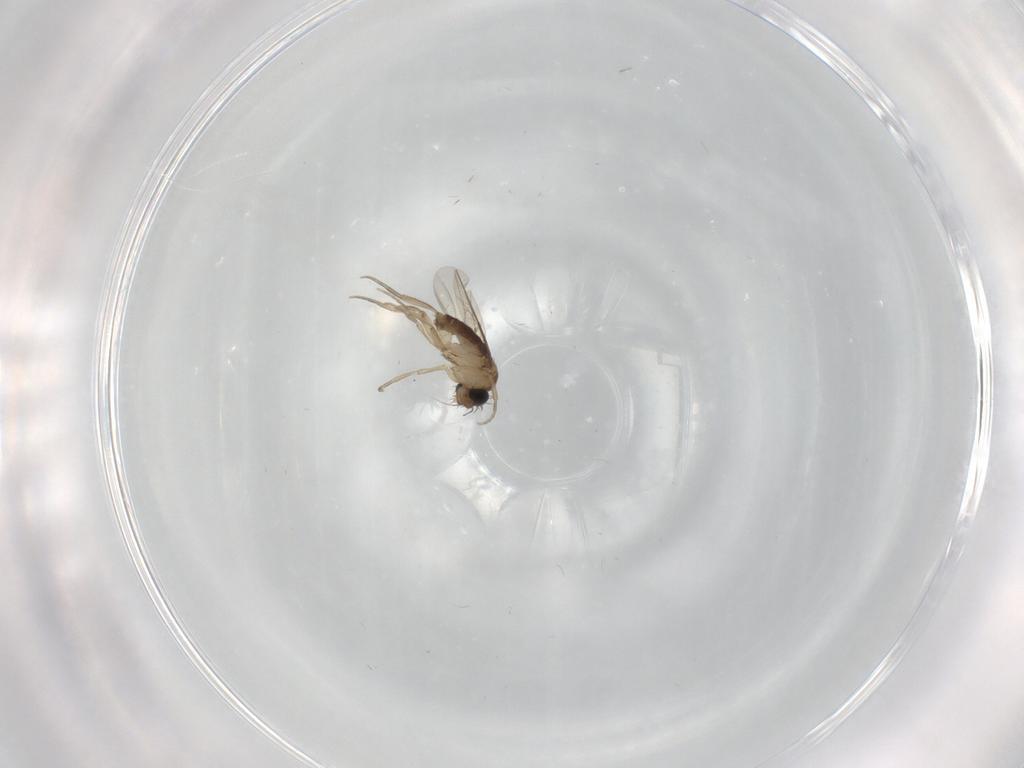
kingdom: Animalia
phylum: Arthropoda
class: Insecta
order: Diptera
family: Phoridae
